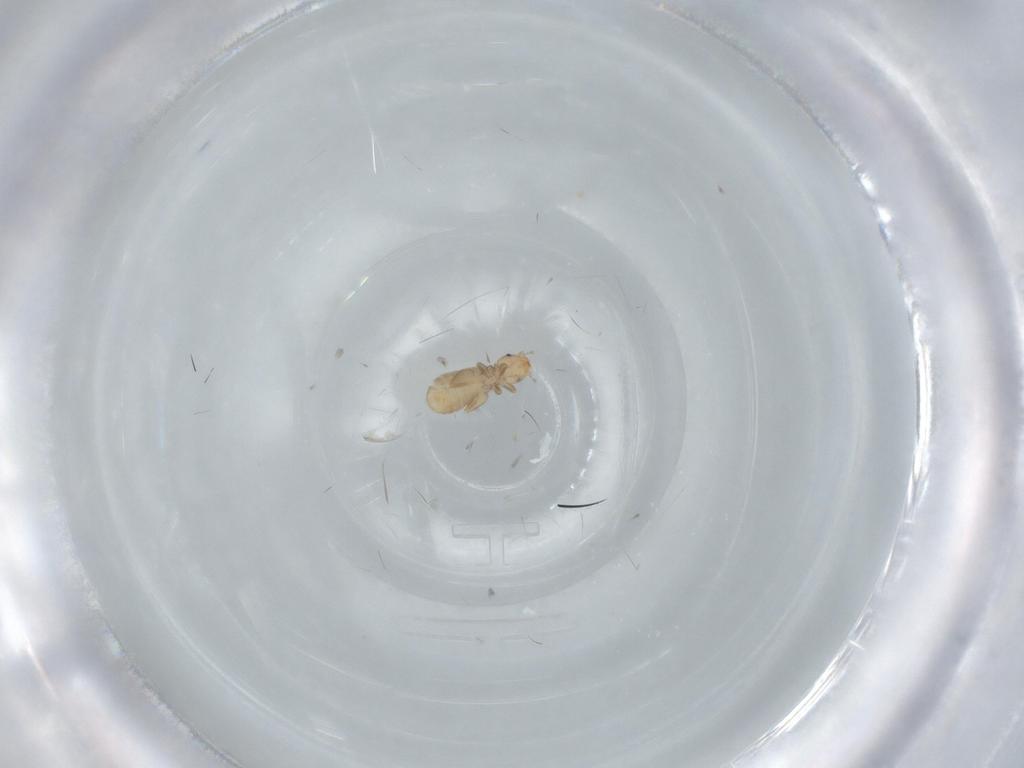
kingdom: Animalia
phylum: Arthropoda
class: Insecta
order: Psocodea
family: Liposcelididae
